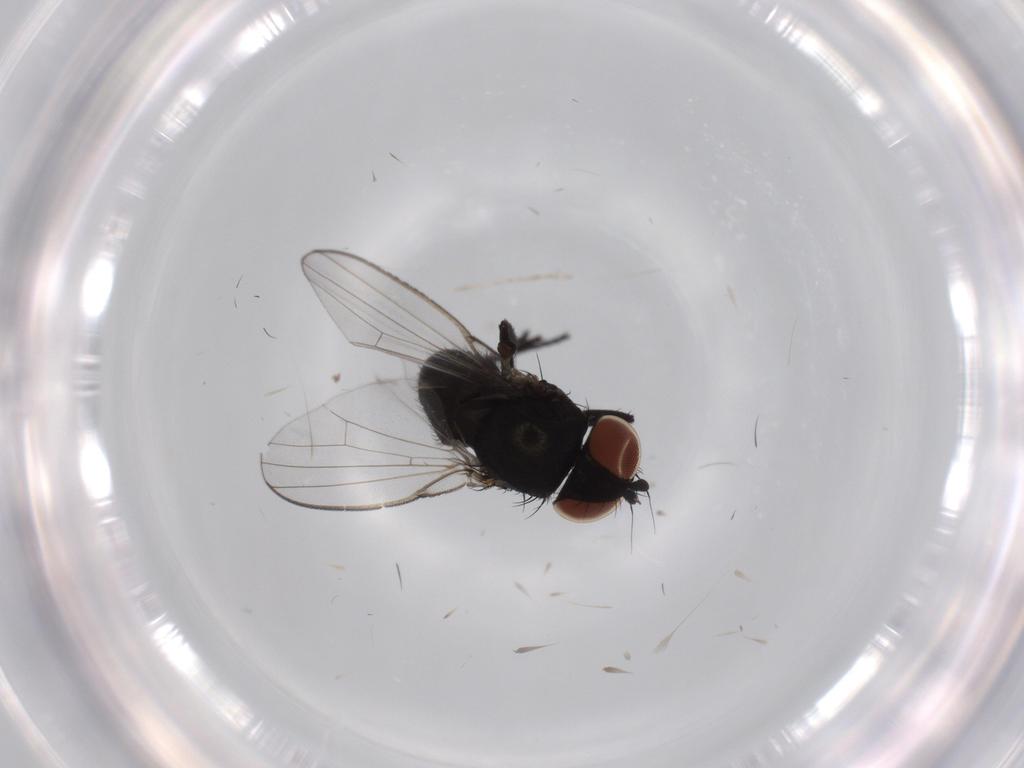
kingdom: Animalia
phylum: Arthropoda
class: Insecta
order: Diptera
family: Milichiidae
